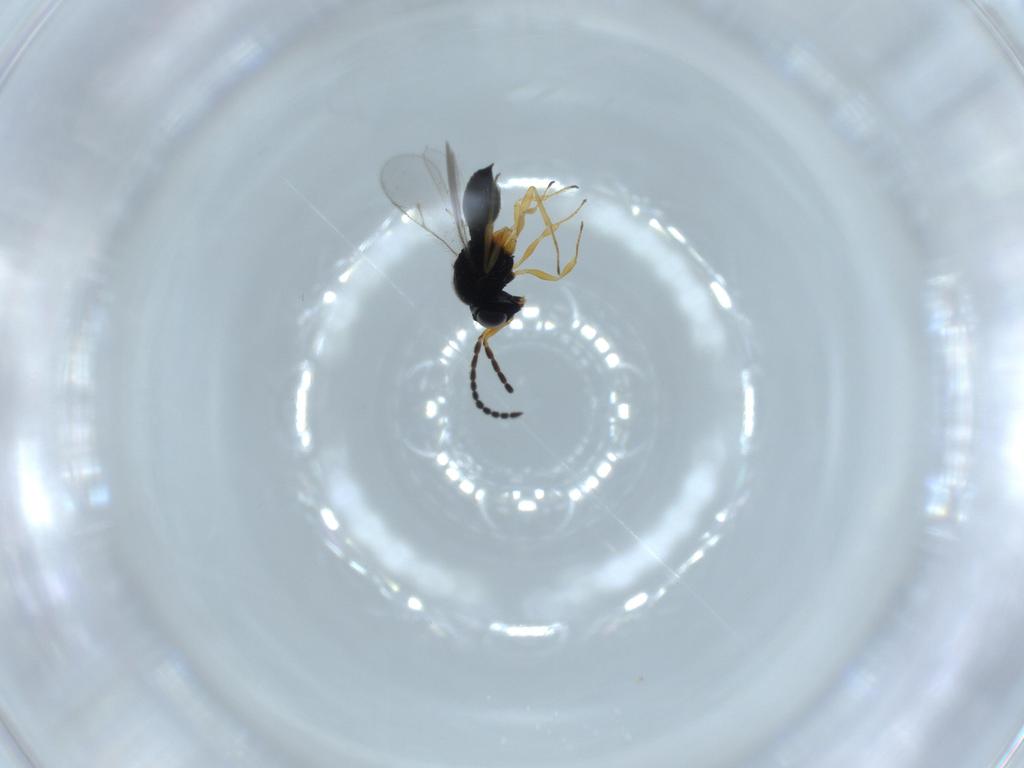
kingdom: Animalia
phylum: Arthropoda
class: Insecta
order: Hymenoptera
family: Scelionidae
